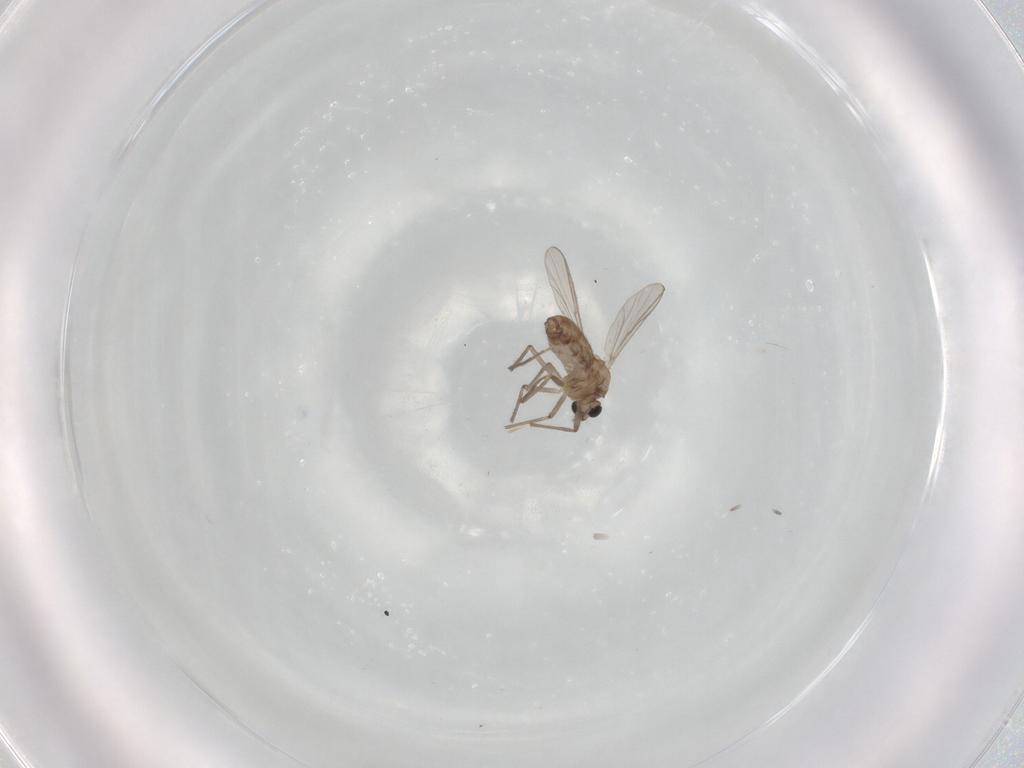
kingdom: Animalia
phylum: Arthropoda
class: Insecta
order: Diptera
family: Chironomidae
